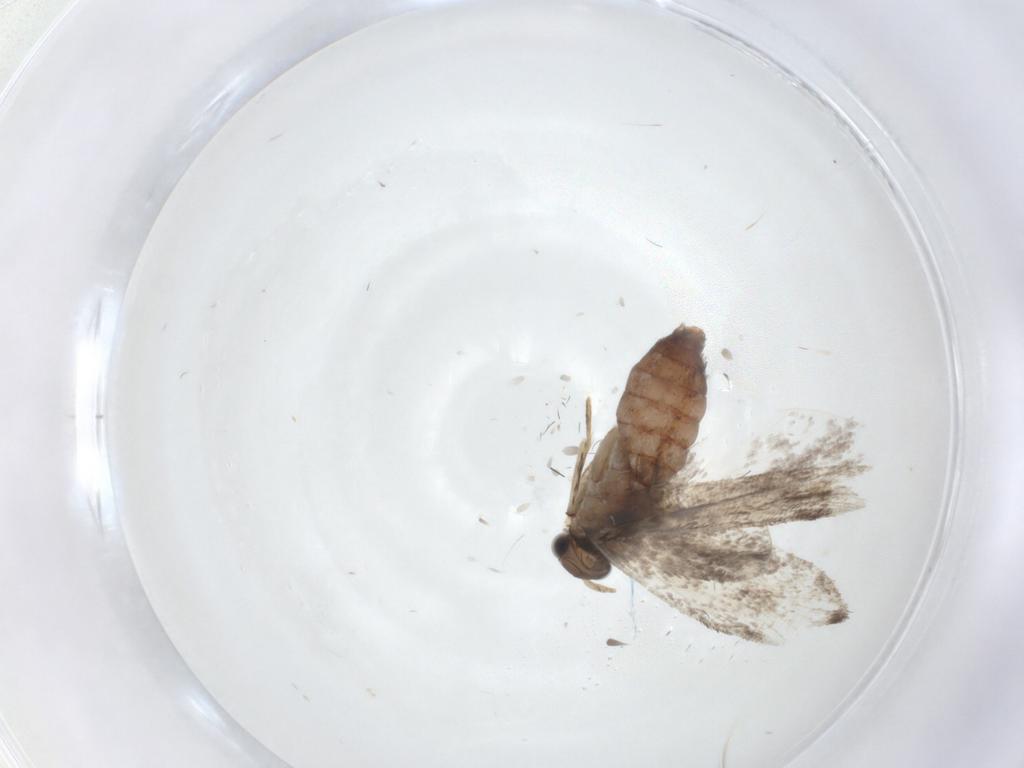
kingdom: Animalia
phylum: Arthropoda
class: Insecta
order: Lepidoptera
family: Tineidae
